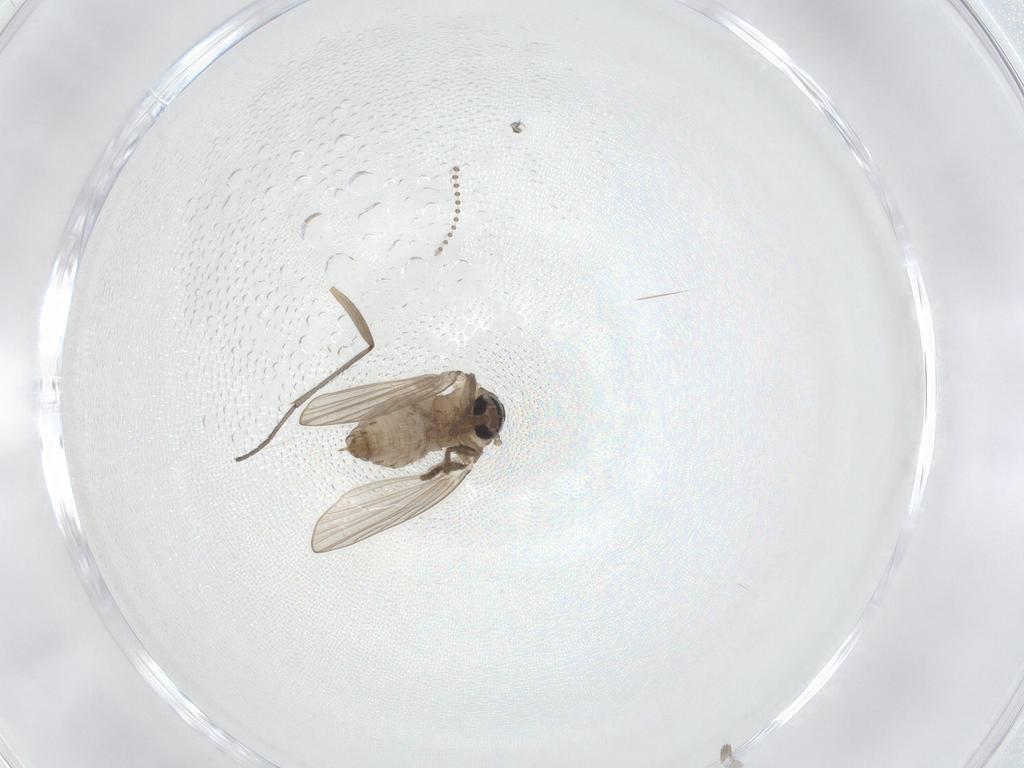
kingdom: Animalia
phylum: Arthropoda
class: Insecta
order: Diptera
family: Psychodidae
